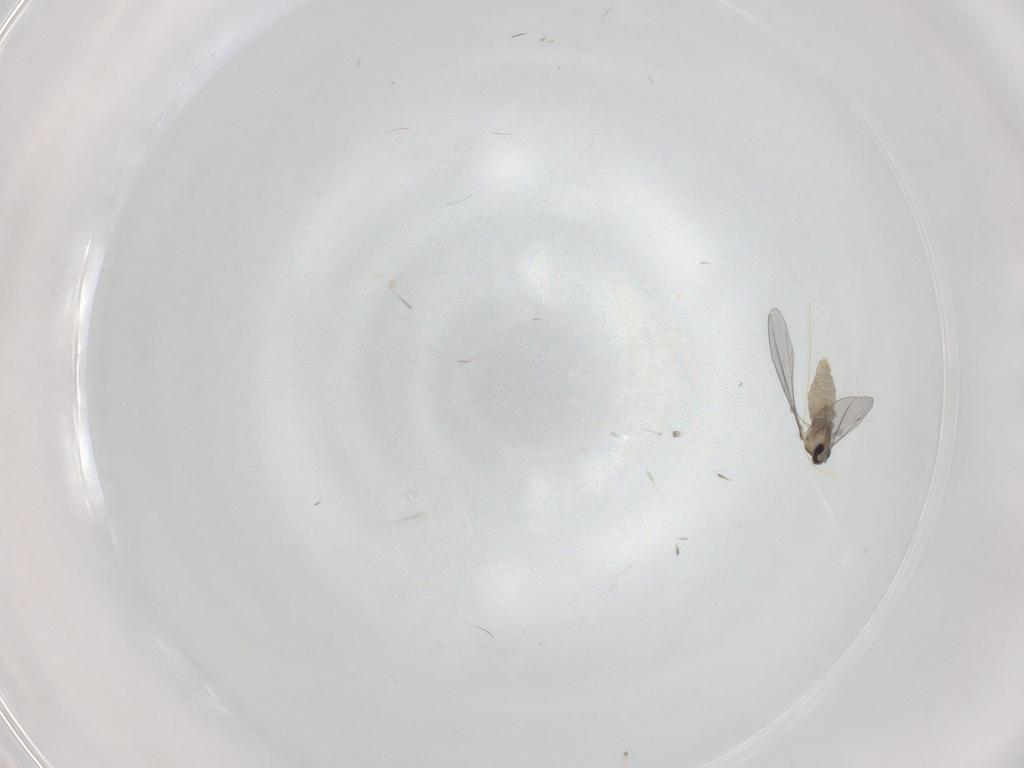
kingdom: Animalia
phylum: Arthropoda
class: Insecta
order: Diptera
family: Cecidomyiidae
